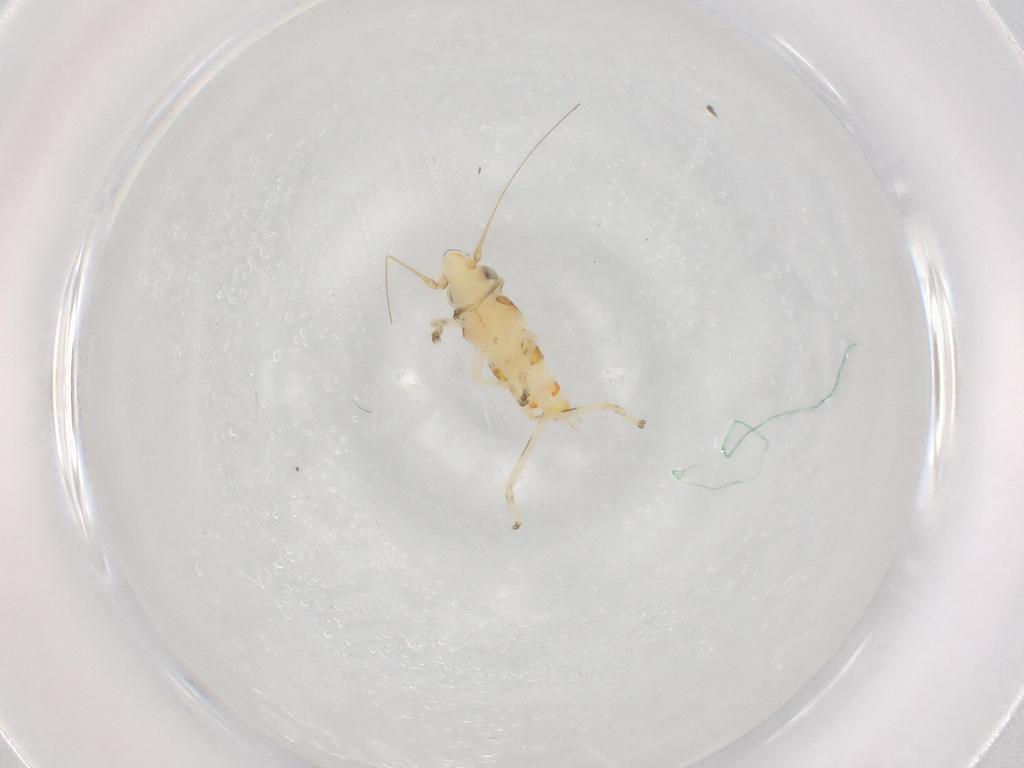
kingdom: Animalia
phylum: Arthropoda
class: Insecta
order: Hemiptera
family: Cicadellidae
